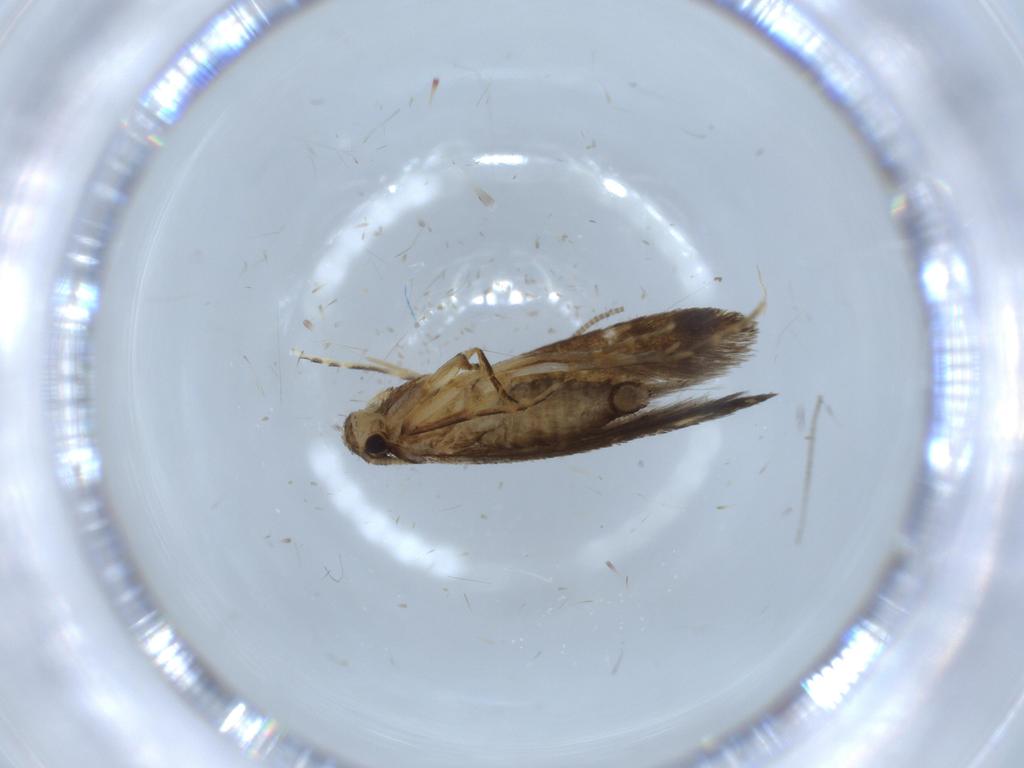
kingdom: Animalia
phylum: Arthropoda
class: Insecta
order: Lepidoptera
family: Tineidae
